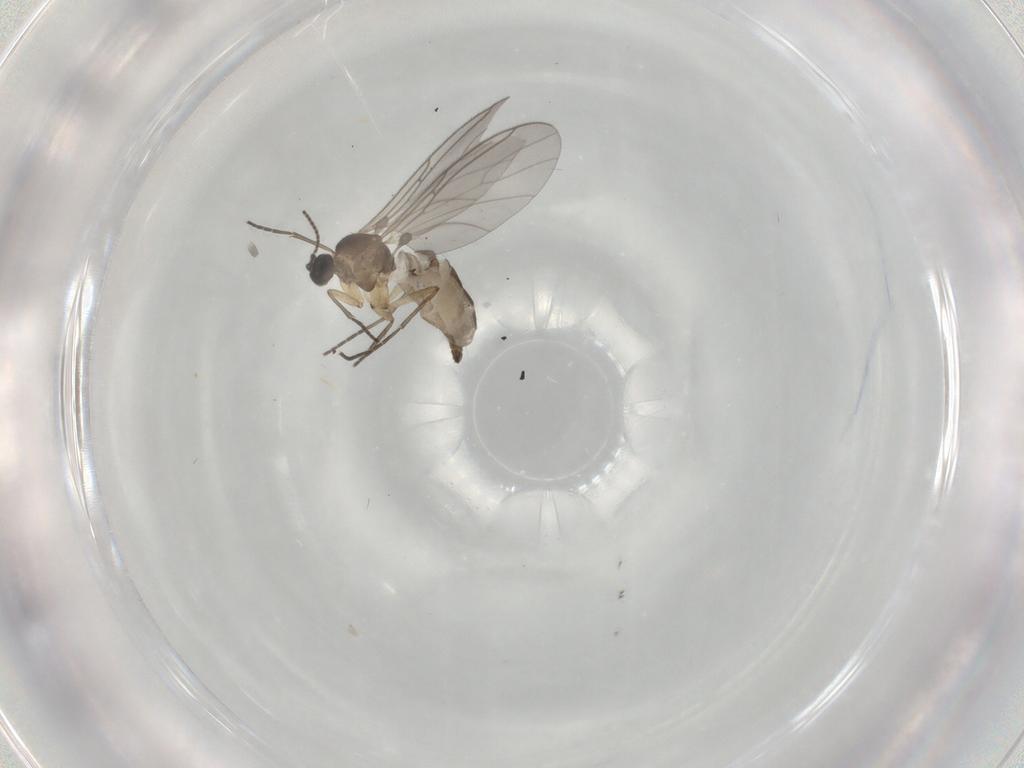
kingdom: Animalia
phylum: Arthropoda
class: Insecta
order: Diptera
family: Sciaridae
